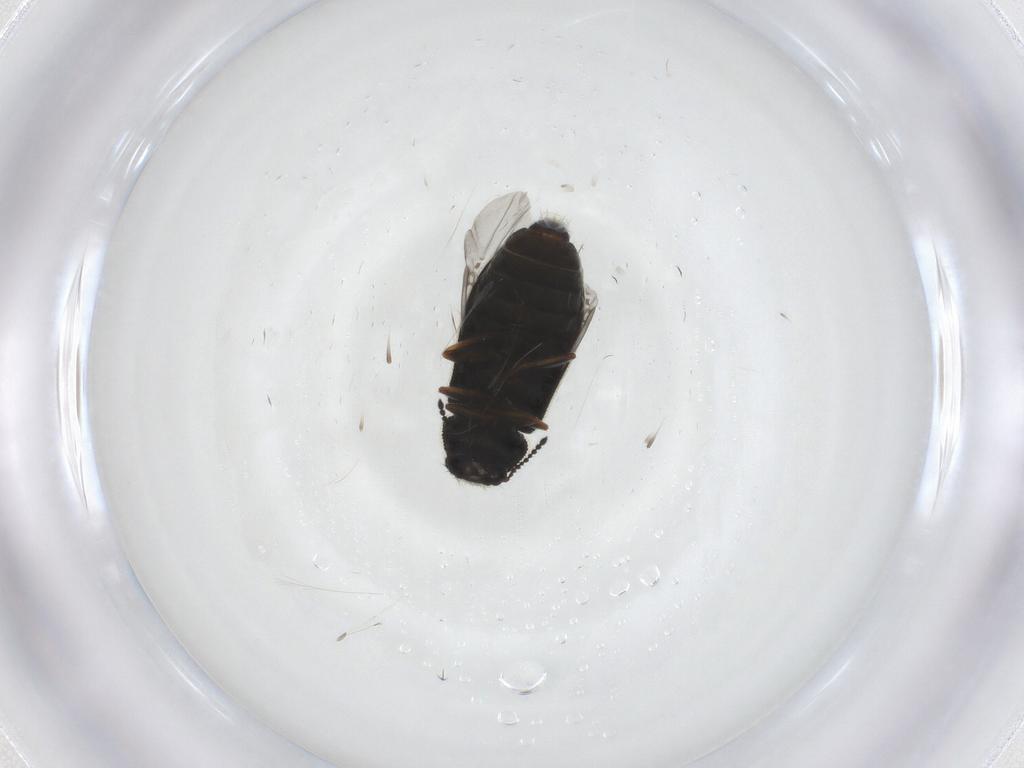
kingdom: Animalia
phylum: Arthropoda
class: Insecta
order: Coleoptera
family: Melyridae
